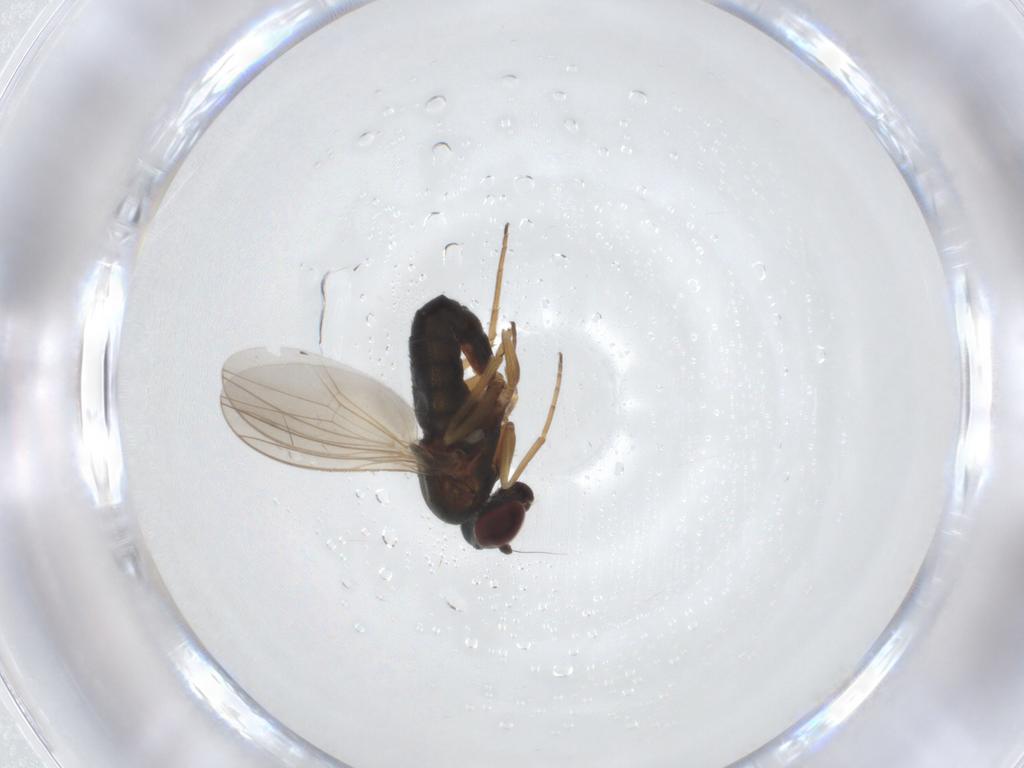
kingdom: Animalia
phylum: Arthropoda
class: Insecta
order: Diptera
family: Dolichopodidae
